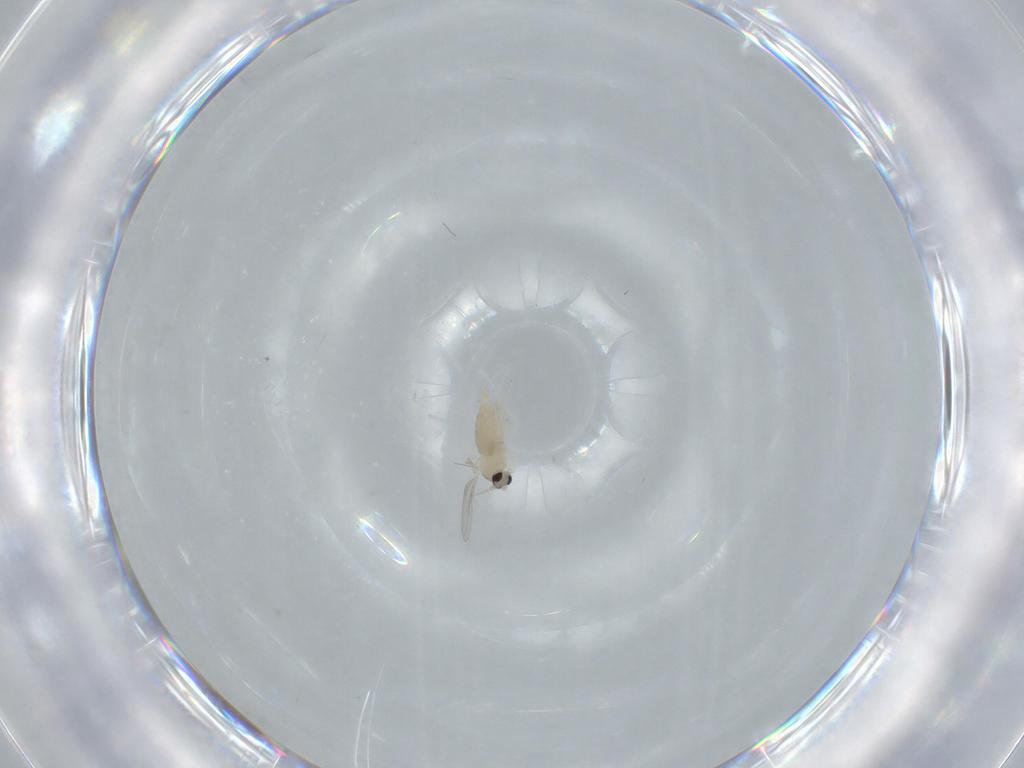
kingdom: Animalia
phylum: Arthropoda
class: Insecta
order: Diptera
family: Cecidomyiidae
